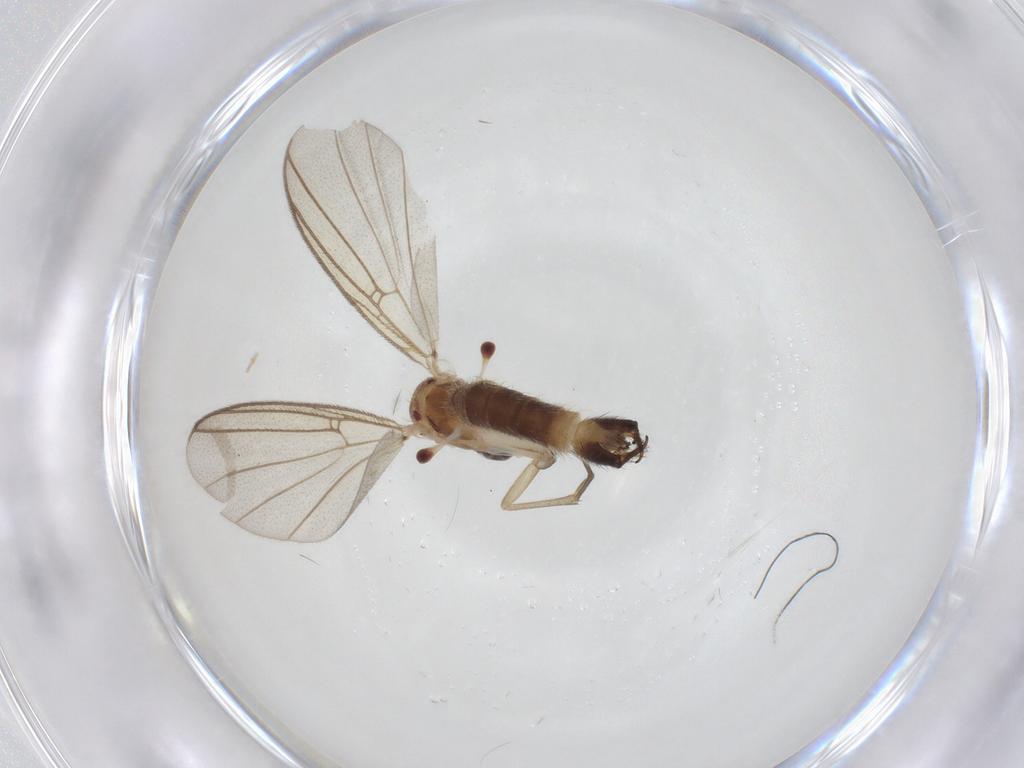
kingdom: Animalia
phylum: Arthropoda
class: Insecta
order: Diptera
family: Mycetophilidae
